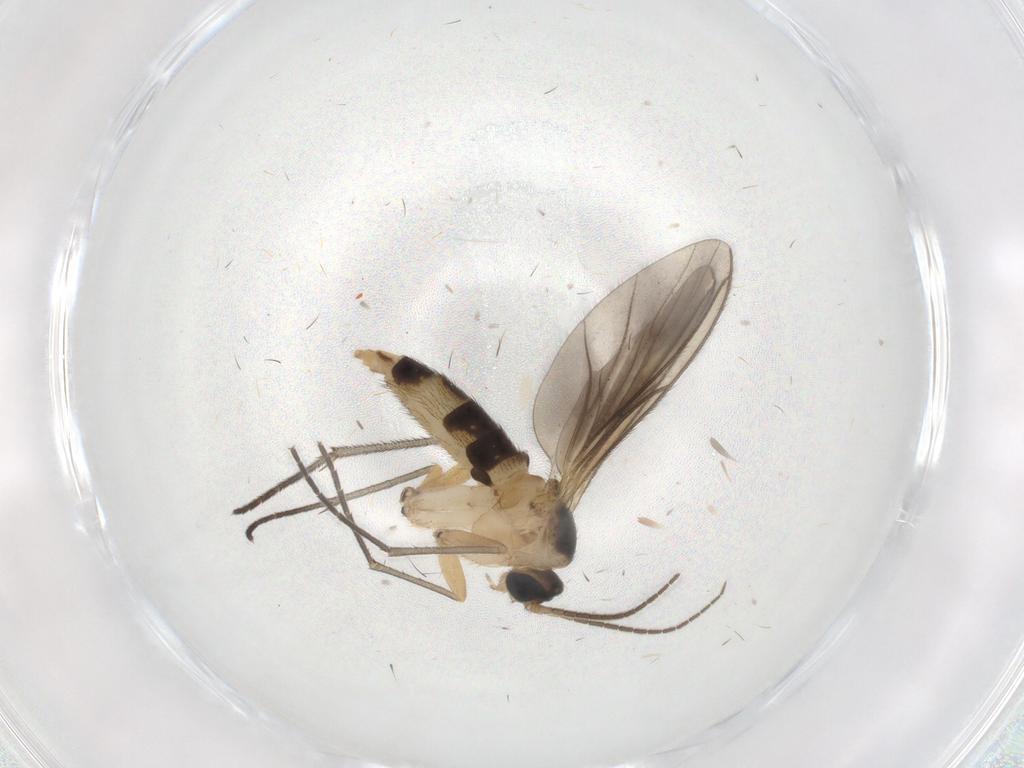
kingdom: Animalia
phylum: Arthropoda
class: Insecta
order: Diptera
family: Sciaridae
